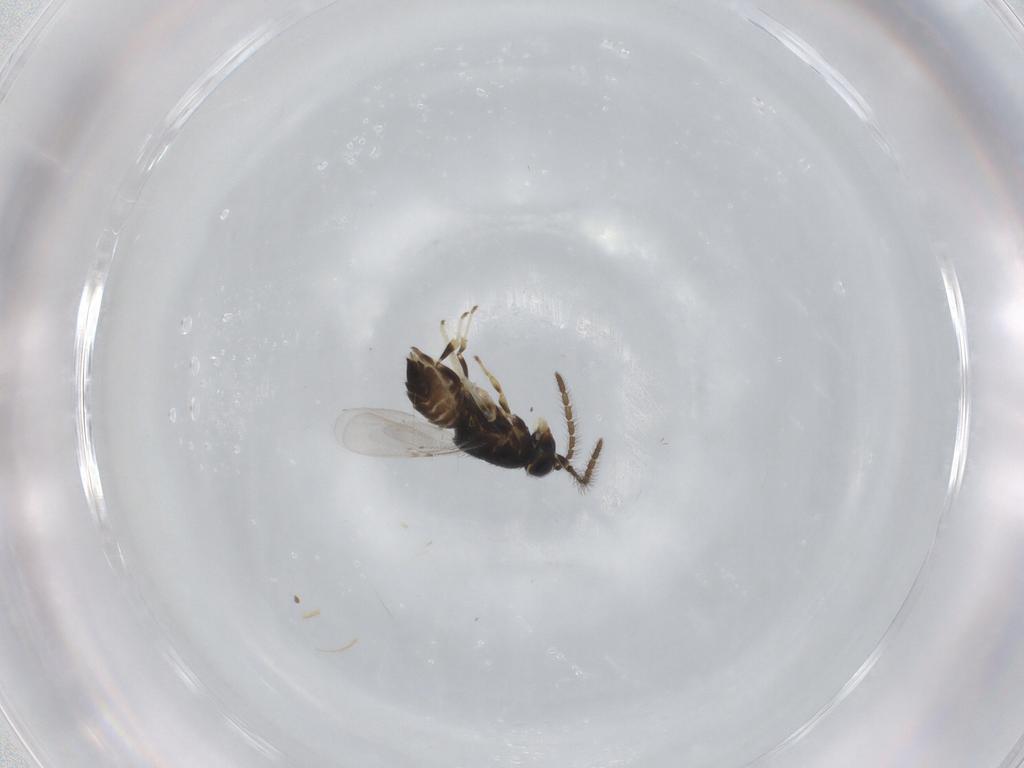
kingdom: Animalia
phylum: Arthropoda
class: Insecta
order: Hymenoptera
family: Encyrtidae
